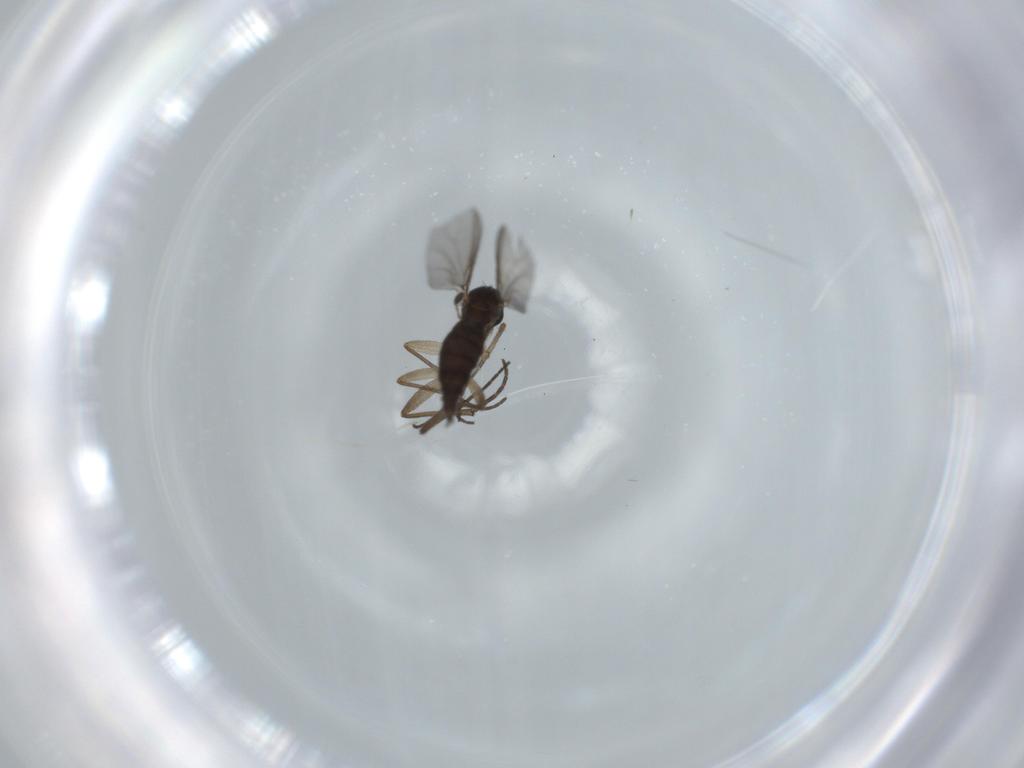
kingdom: Animalia
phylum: Arthropoda
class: Insecta
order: Diptera
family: Sciaridae
